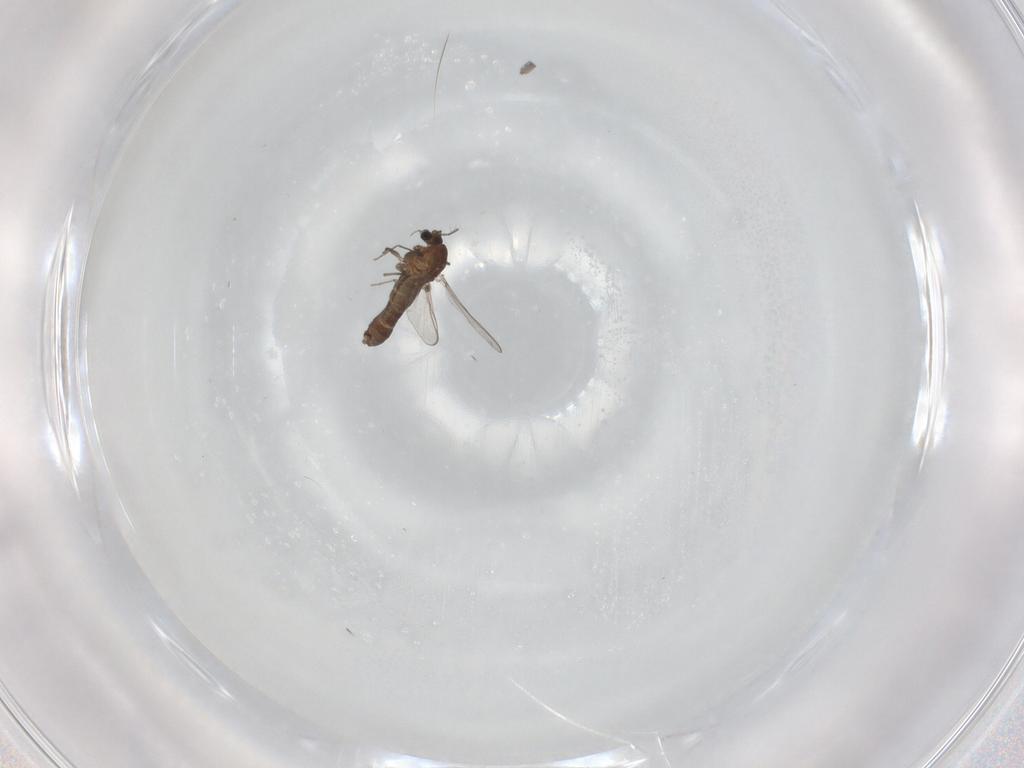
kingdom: Animalia
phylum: Arthropoda
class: Insecta
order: Diptera
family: Chironomidae
